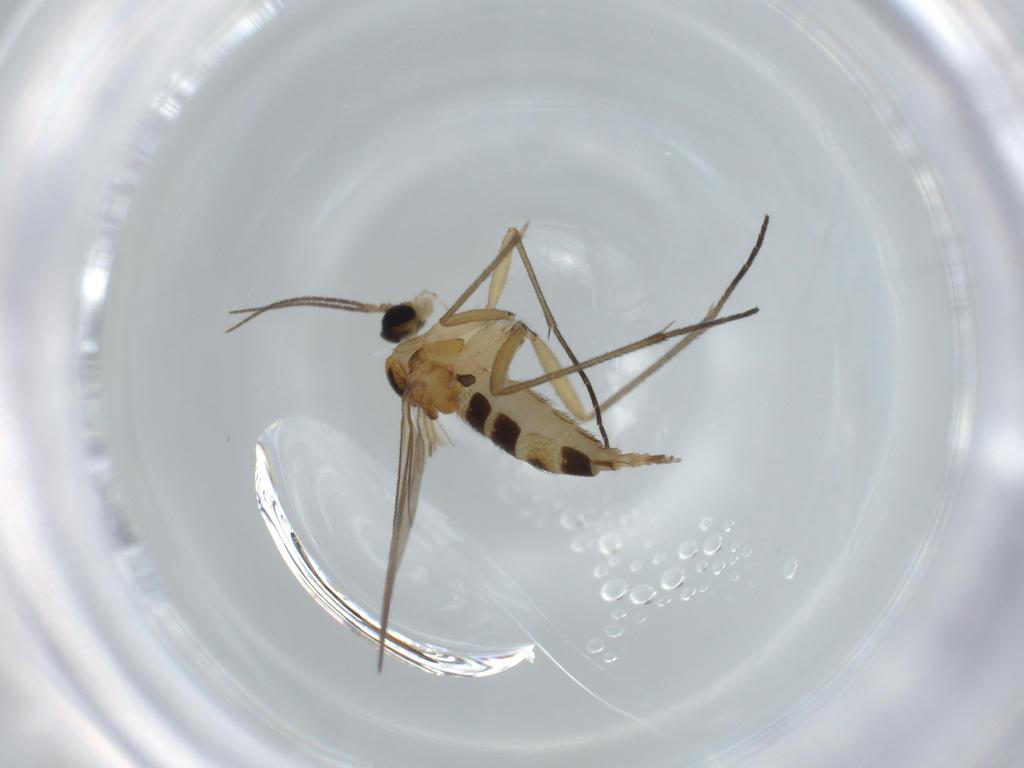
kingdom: Animalia
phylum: Arthropoda
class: Insecta
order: Diptera
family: Sciaridae
